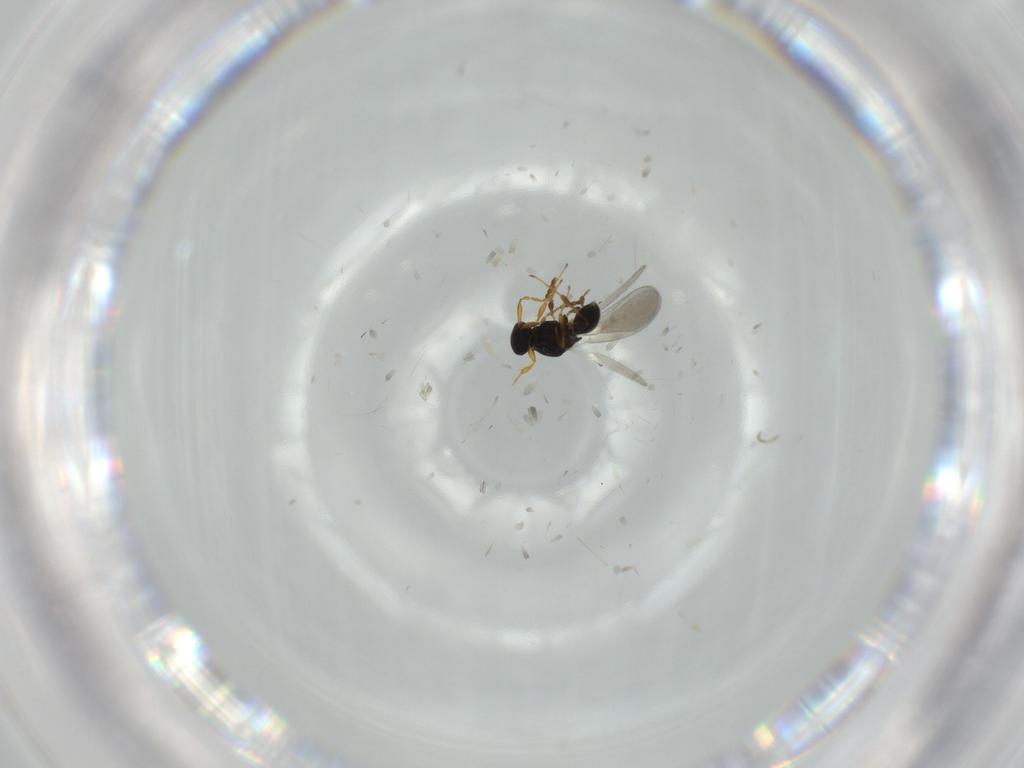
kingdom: Animalia
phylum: Arthropoda
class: Insecta
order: Hymenoptera
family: Platygastridae
